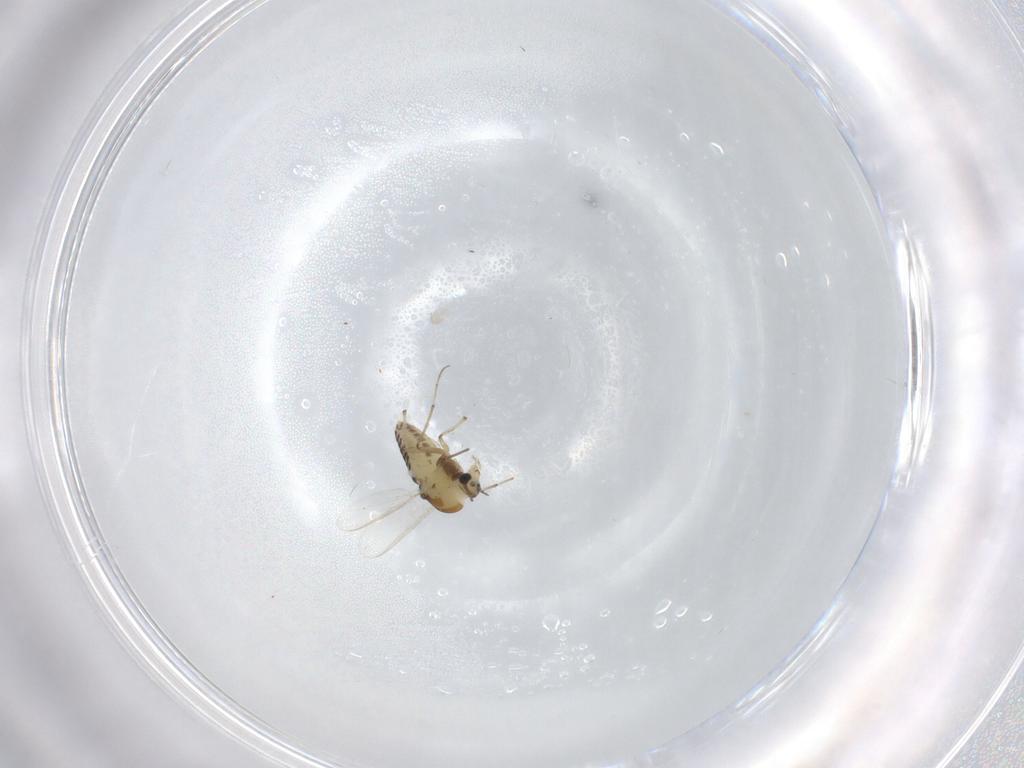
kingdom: Animalia
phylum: Arthropoda
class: Insecta
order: Diptera
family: Chironomidae
